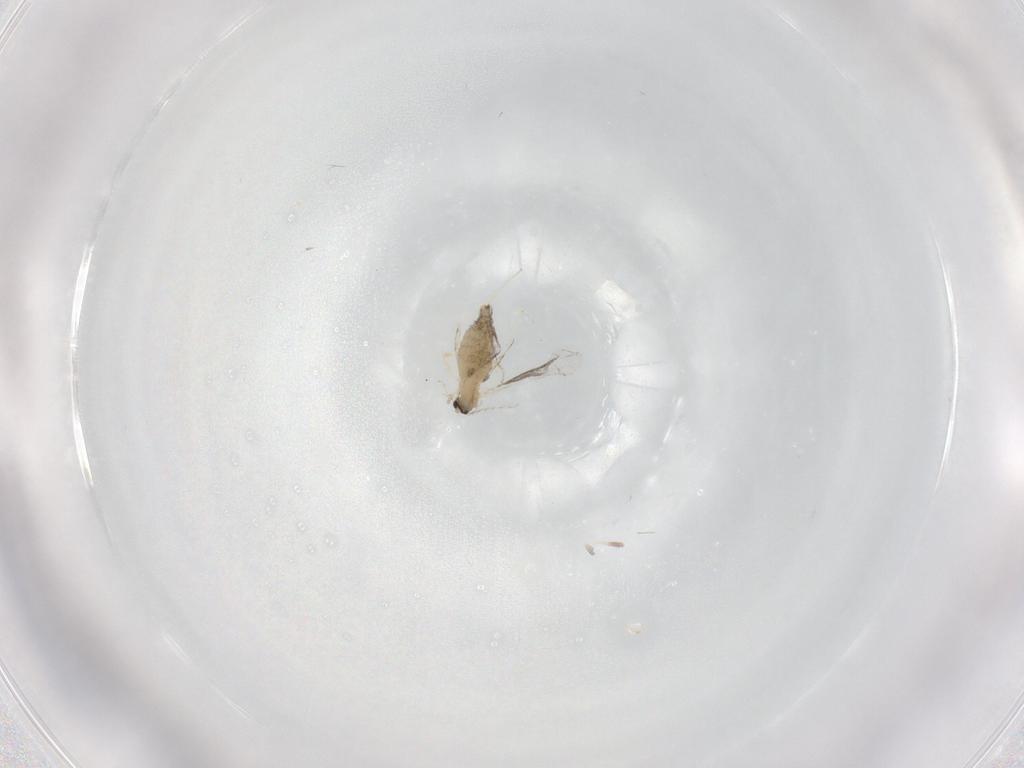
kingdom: Animalia
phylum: Arthropoda
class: Insecta
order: Diptera
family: Cecidomyiidae
